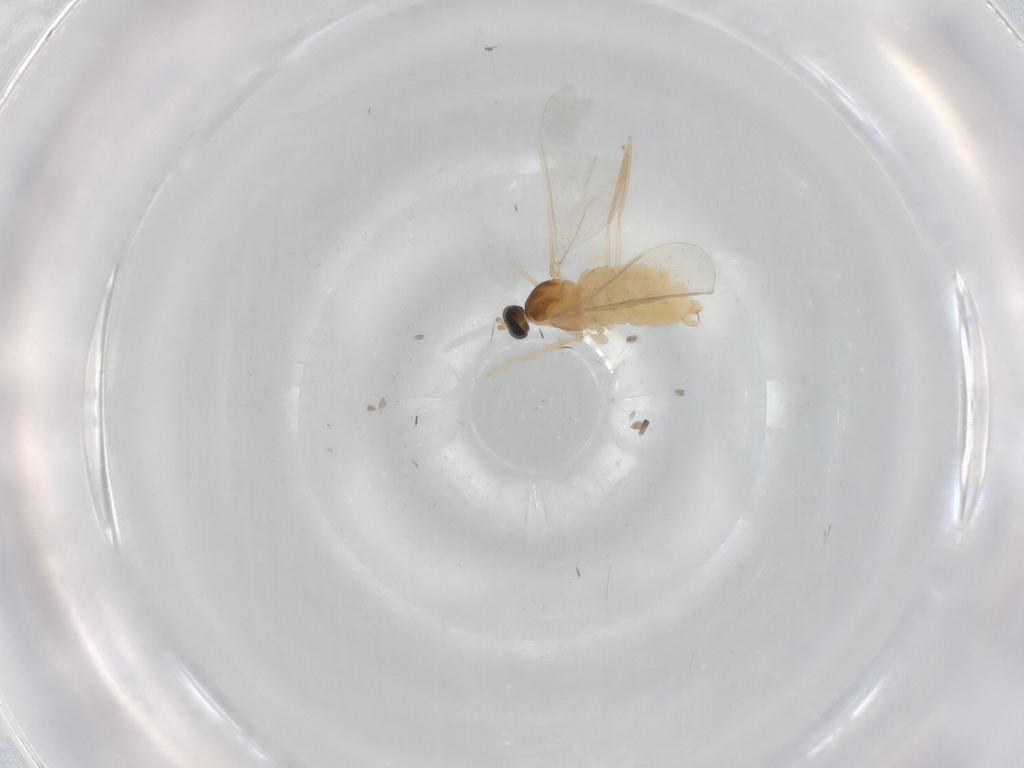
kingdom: Animalia
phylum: Arthropoda
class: Insecta
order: Diptera
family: Cecidomyiidae
